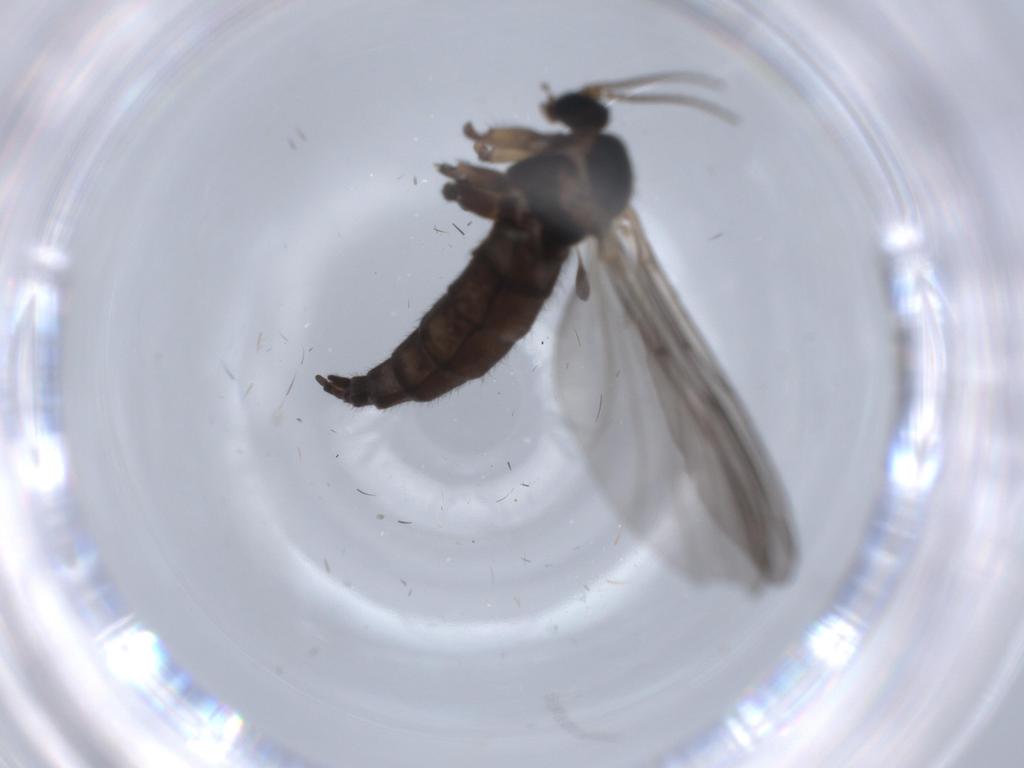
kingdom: Animalia
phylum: Arthropoda
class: Insecta
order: Diptera
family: Sciaridae
